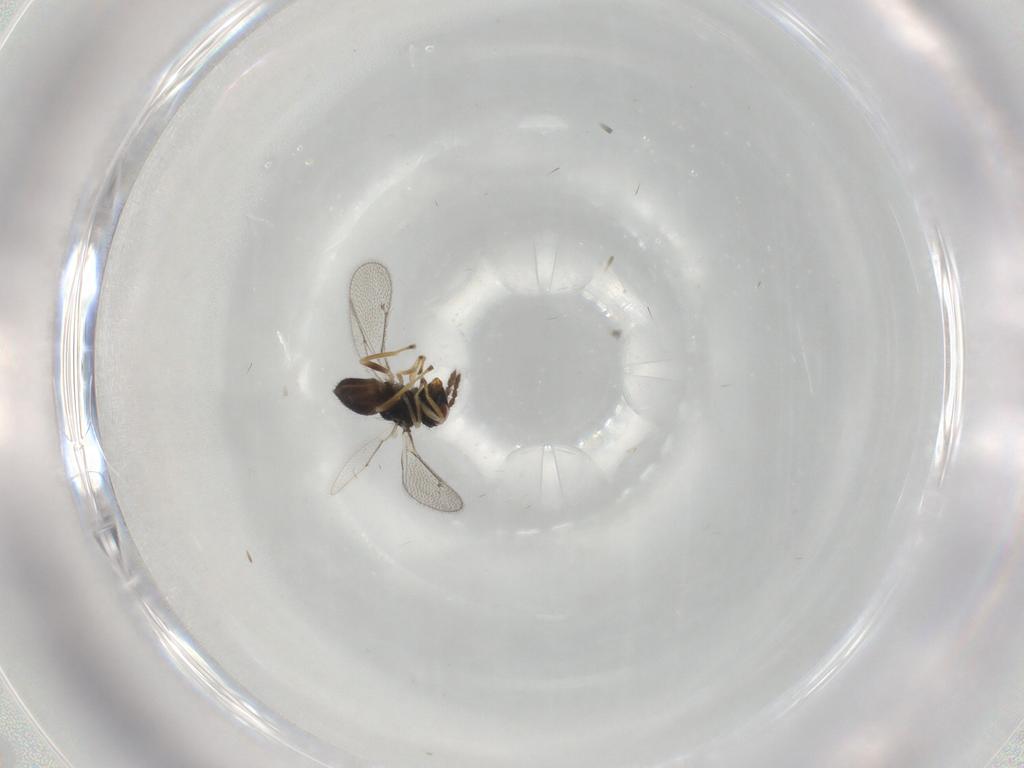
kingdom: Animalia
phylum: Arthropoda
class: Insecta
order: Hymenoptera
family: Eulophidae
